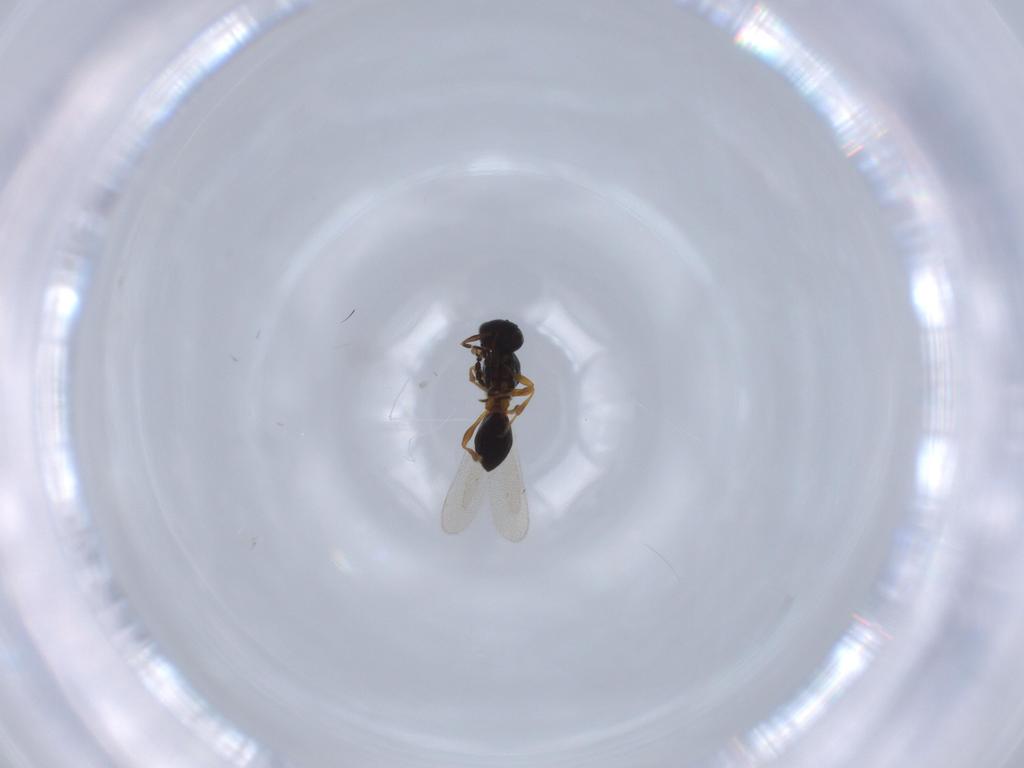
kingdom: Animalia
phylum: Arthropoda
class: Insecta
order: Hymenoptera
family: Platygastridae
